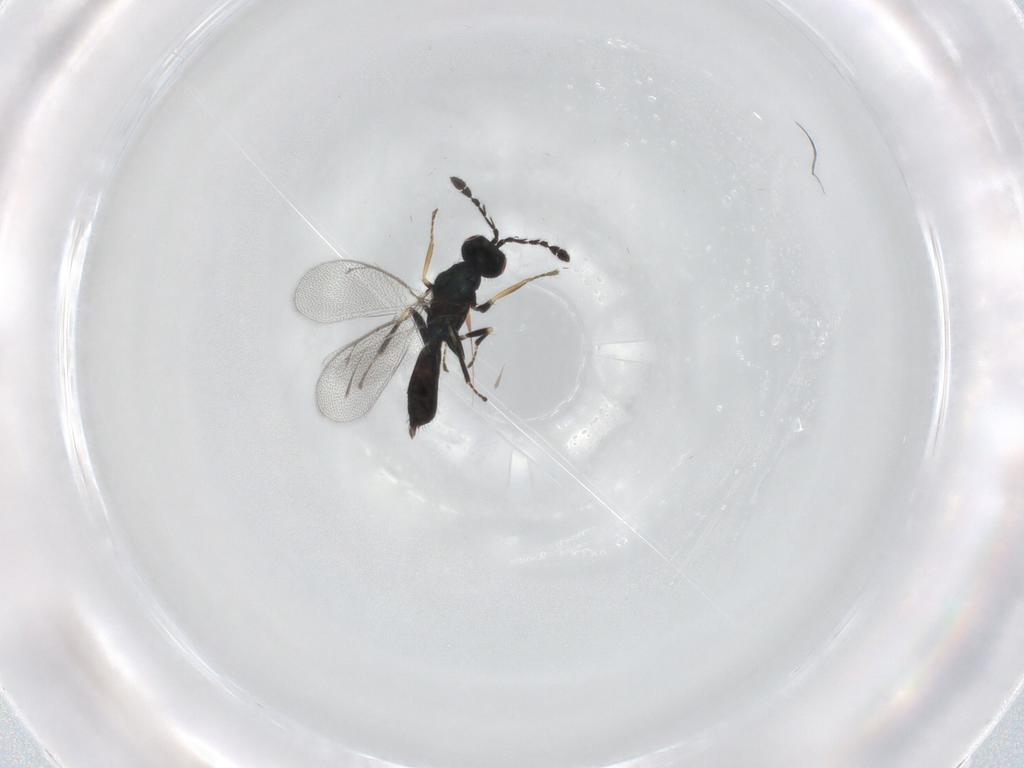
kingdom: Animalia
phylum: Arthropoda
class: Insecta
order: Hymenoptera
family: Eulophidae
